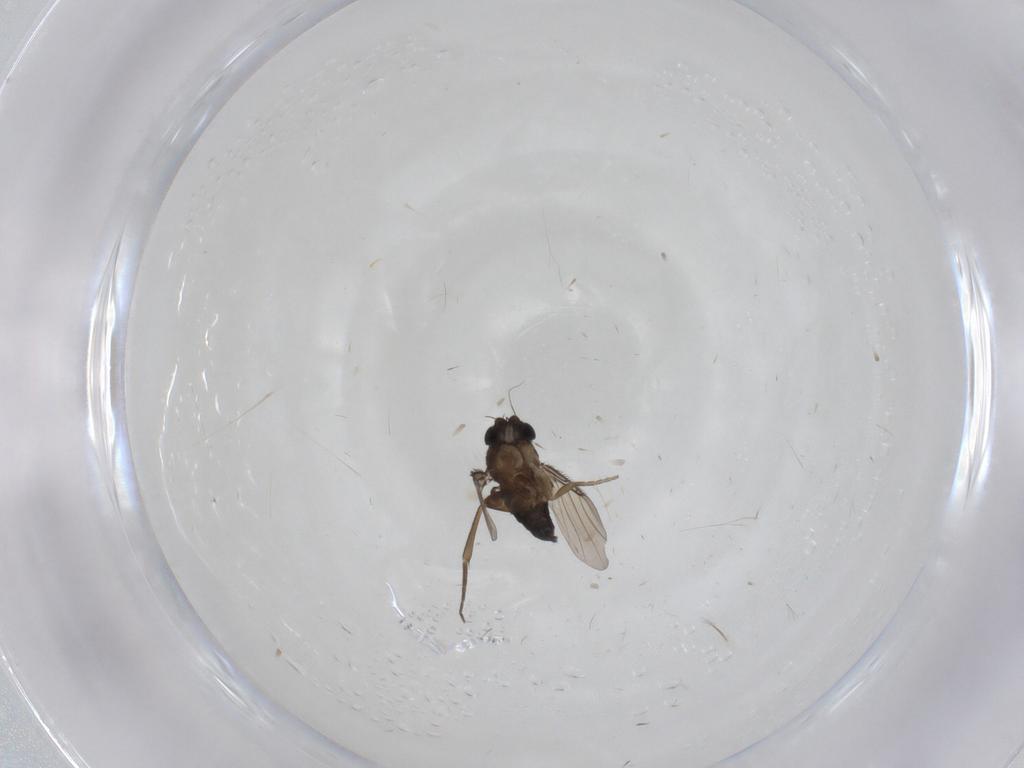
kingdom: Animalia
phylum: Arthropoda
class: Insecta
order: Diptera
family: Phoridae
